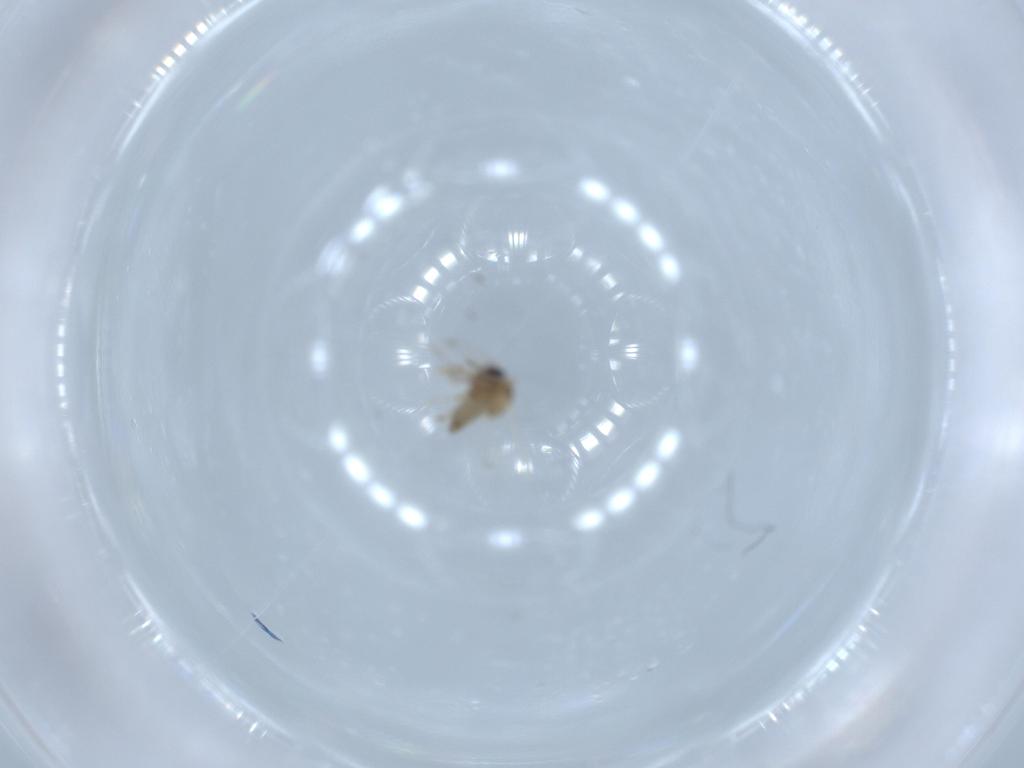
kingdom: Animalia
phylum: Arthropoda
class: Insecta
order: Diptera
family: Ceratopogonidae
